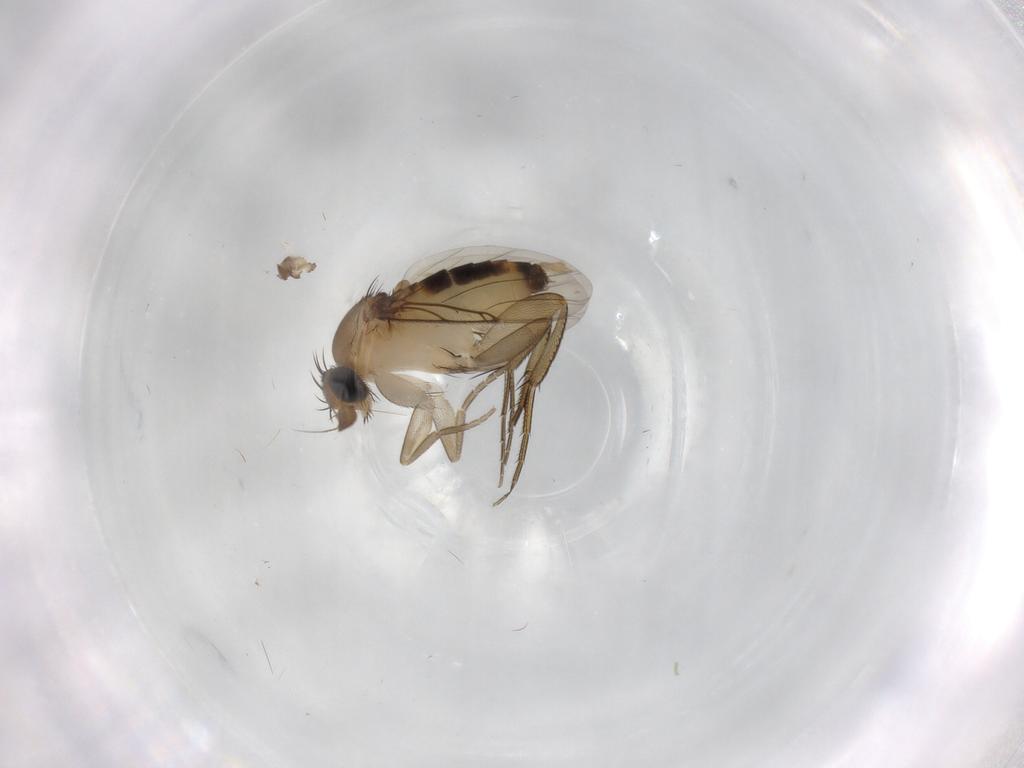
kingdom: Animalia
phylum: Arthropoda
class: Insecta
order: Diptera
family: Ceratopogonidae
